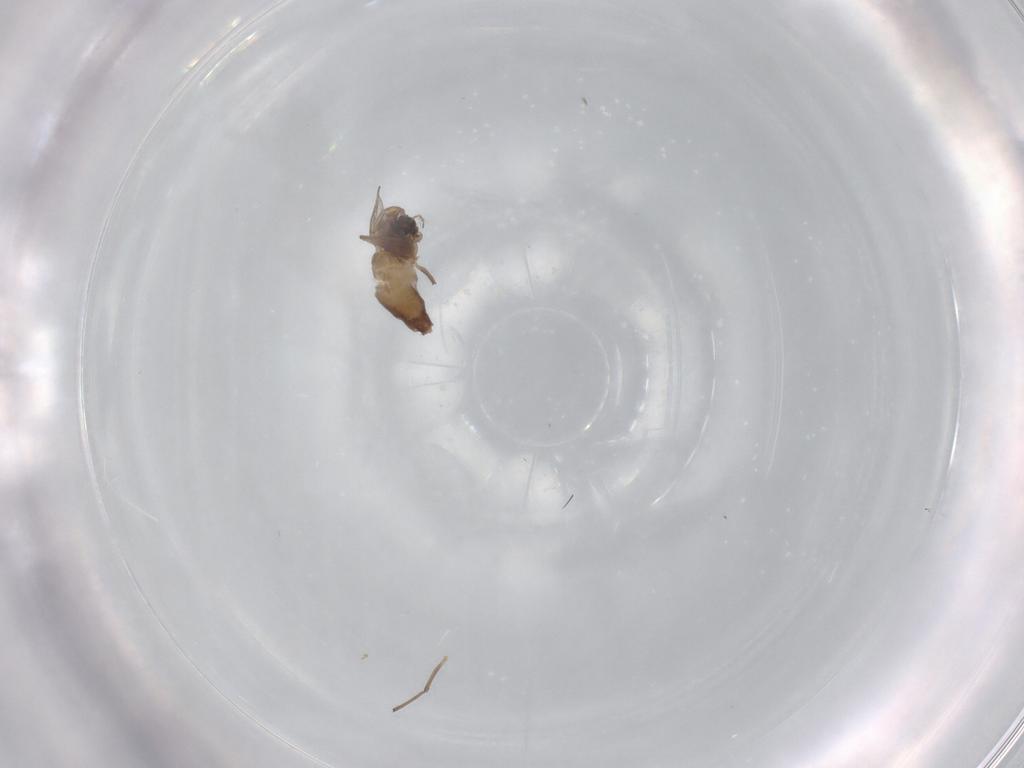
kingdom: Animalia
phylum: Arthropoda
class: Insecta
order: Diptera
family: Chironomidae
